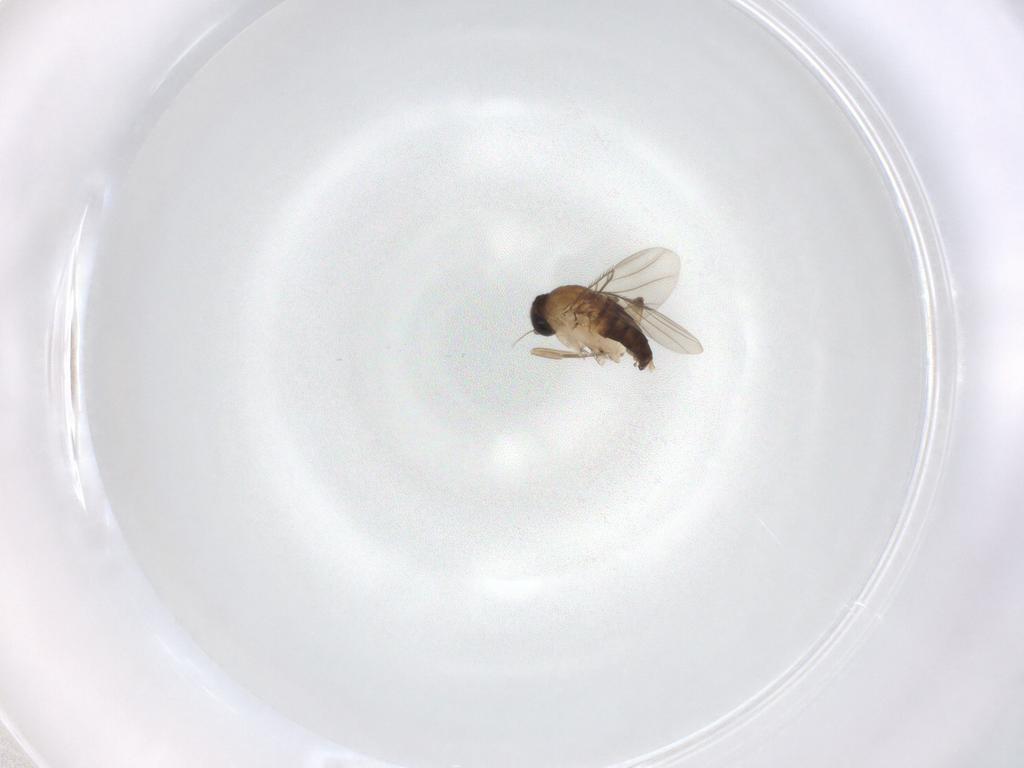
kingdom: Animalia
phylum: Arthropoda
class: Insecta
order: Diptera
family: Phoridae
